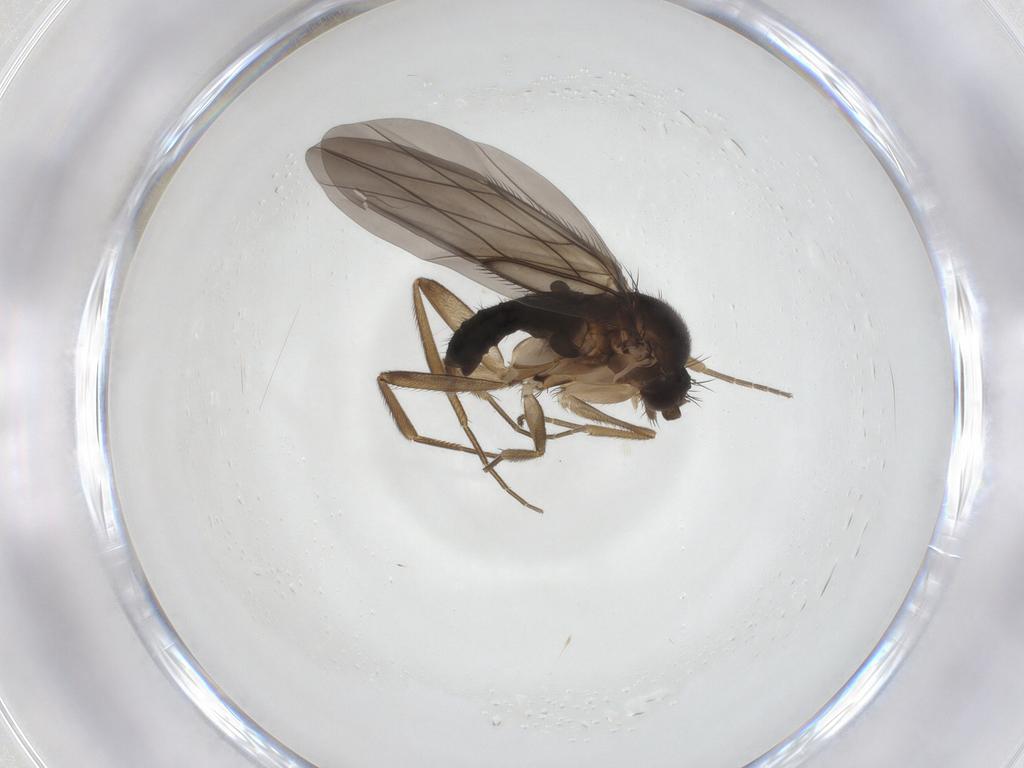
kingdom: Animalia
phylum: Arthropoda
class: Insecta
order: Diptera
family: Phoridae
